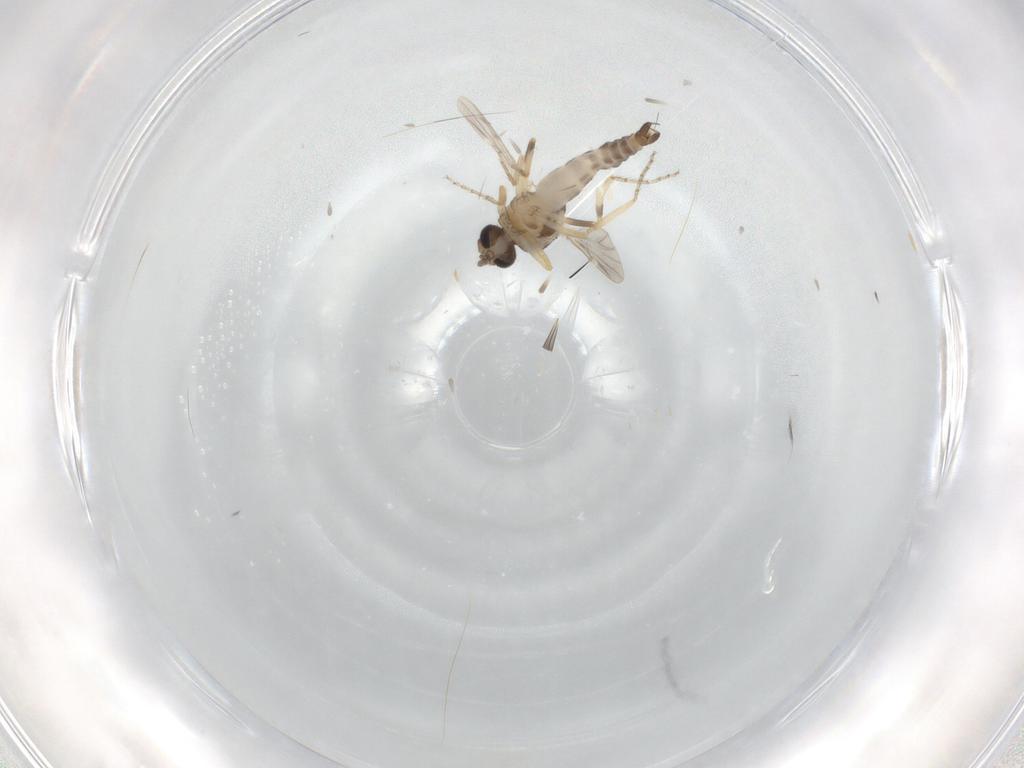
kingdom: Animalia
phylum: Arthropoda
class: Insecta
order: Diptera
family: Ceratopogonidae
